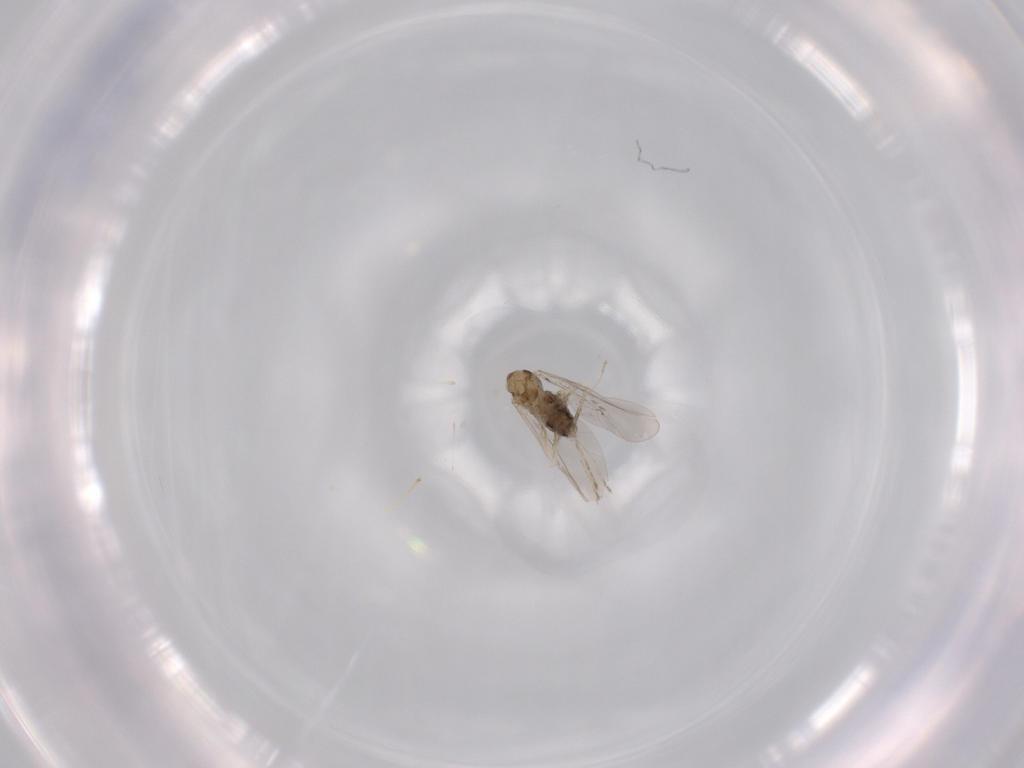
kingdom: Animalia
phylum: Arthropoda
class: Insecta
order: Diptera
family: Cecidomyiidae
